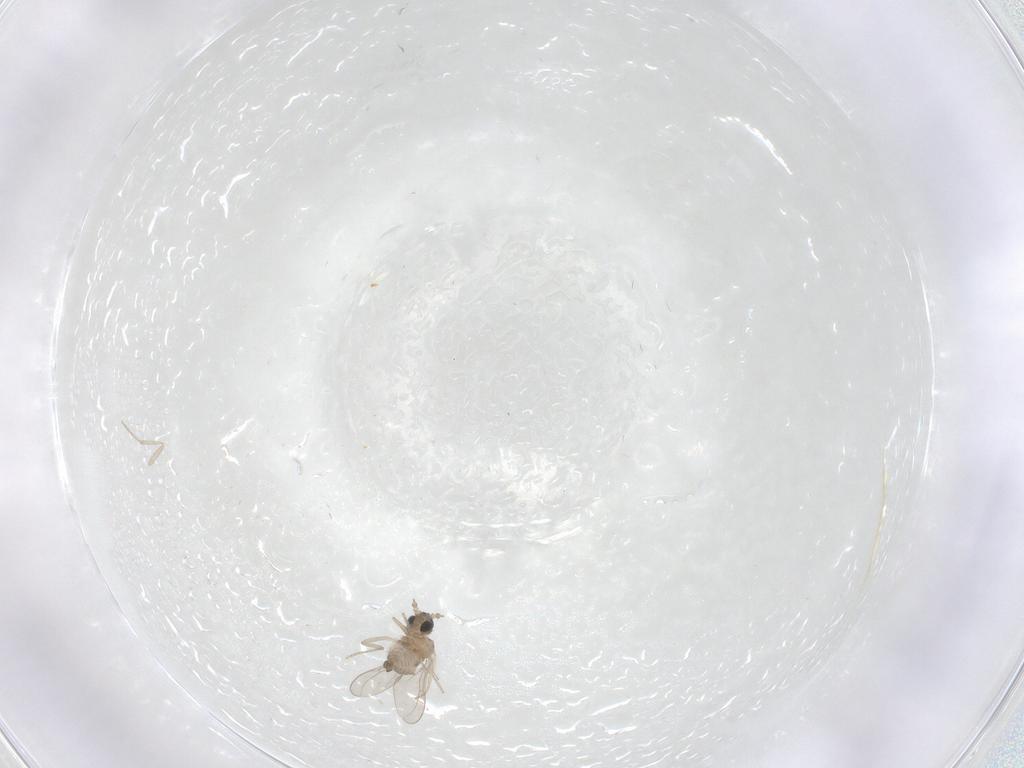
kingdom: Animalia
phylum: Arthropoda
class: Insecta
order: Diptera
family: Cecidomyiidae
